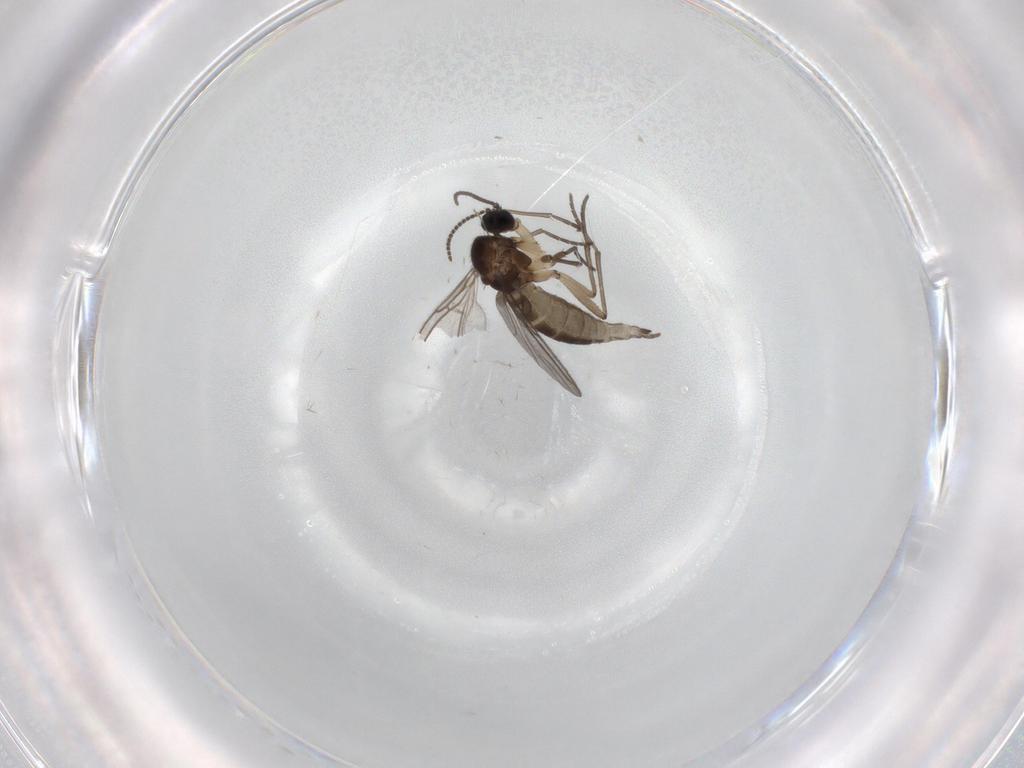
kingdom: Animalia
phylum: Arthropoda
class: Insecta
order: Diptera
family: Sciaridae
